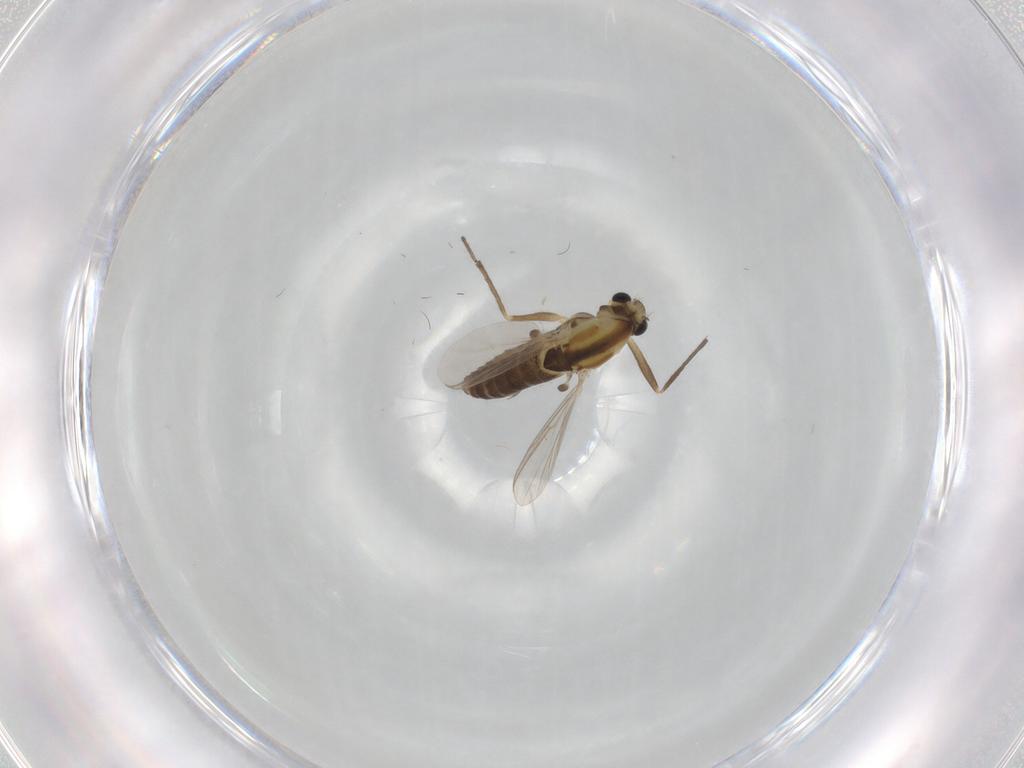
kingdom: Animalia
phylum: Arthropoda
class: Insecta
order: Diptera
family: Chironomidae
